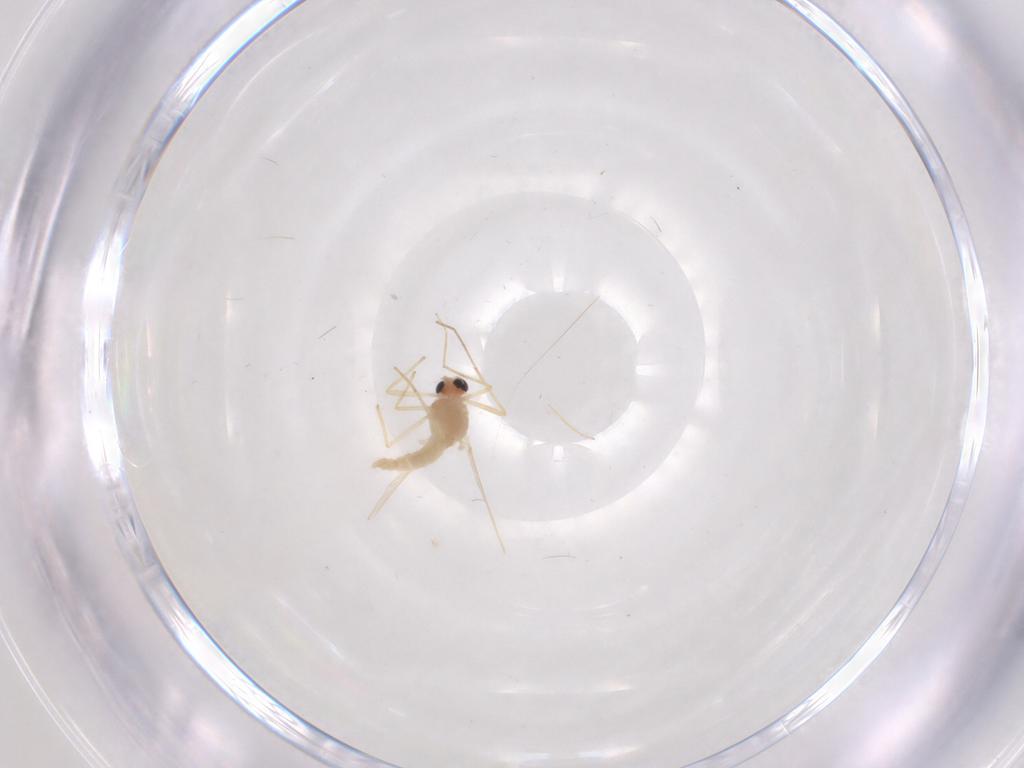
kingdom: Animalia
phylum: Arthropoda
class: Insecta
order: Diptera
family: Chironomidae
